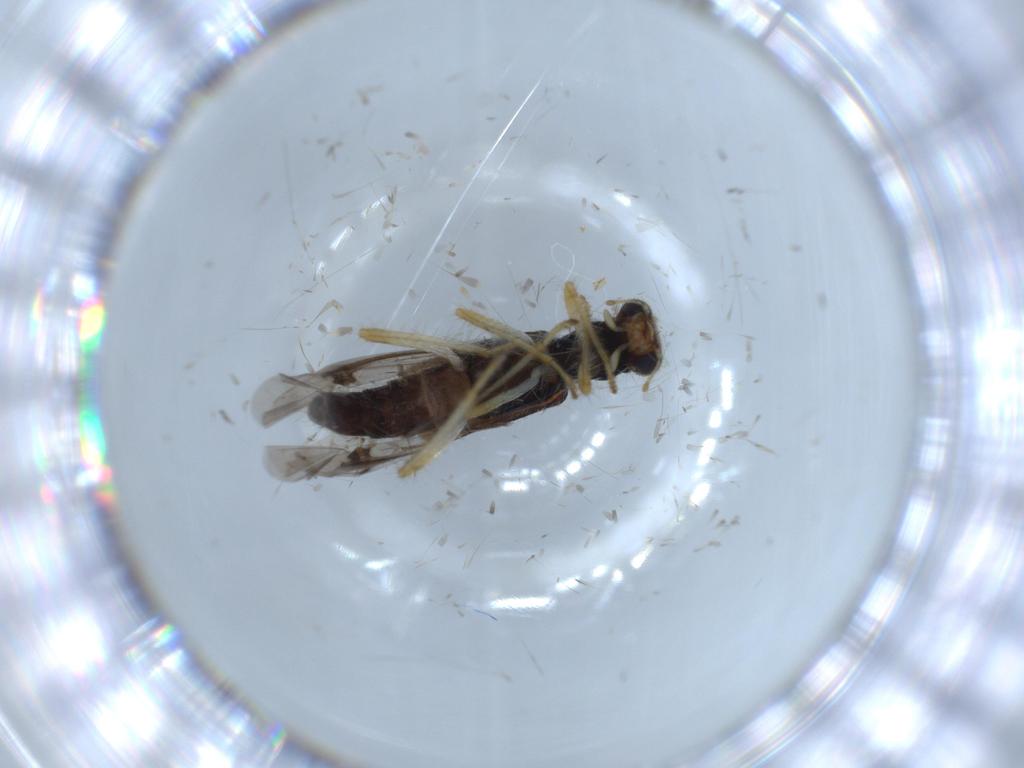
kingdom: Animalia
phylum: Arthropoda
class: Insecta
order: Coleoptera
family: Cleridae
